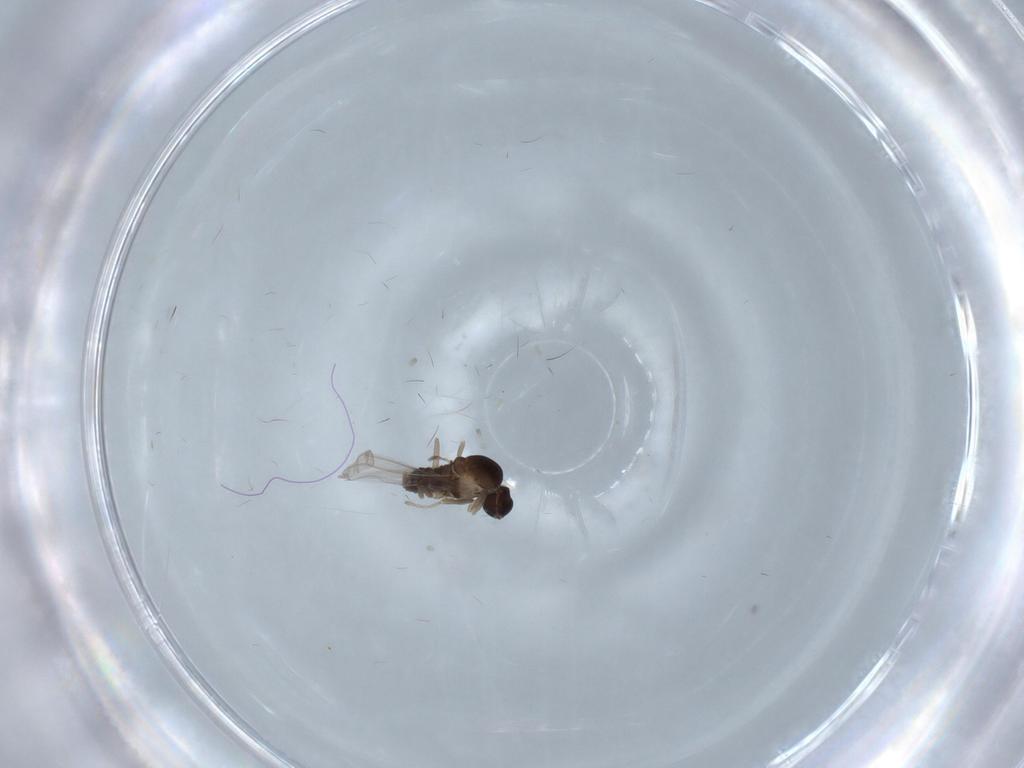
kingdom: Animalia
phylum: Arthropoda
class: Insecta
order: Diptera
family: Cecidomyiidae
